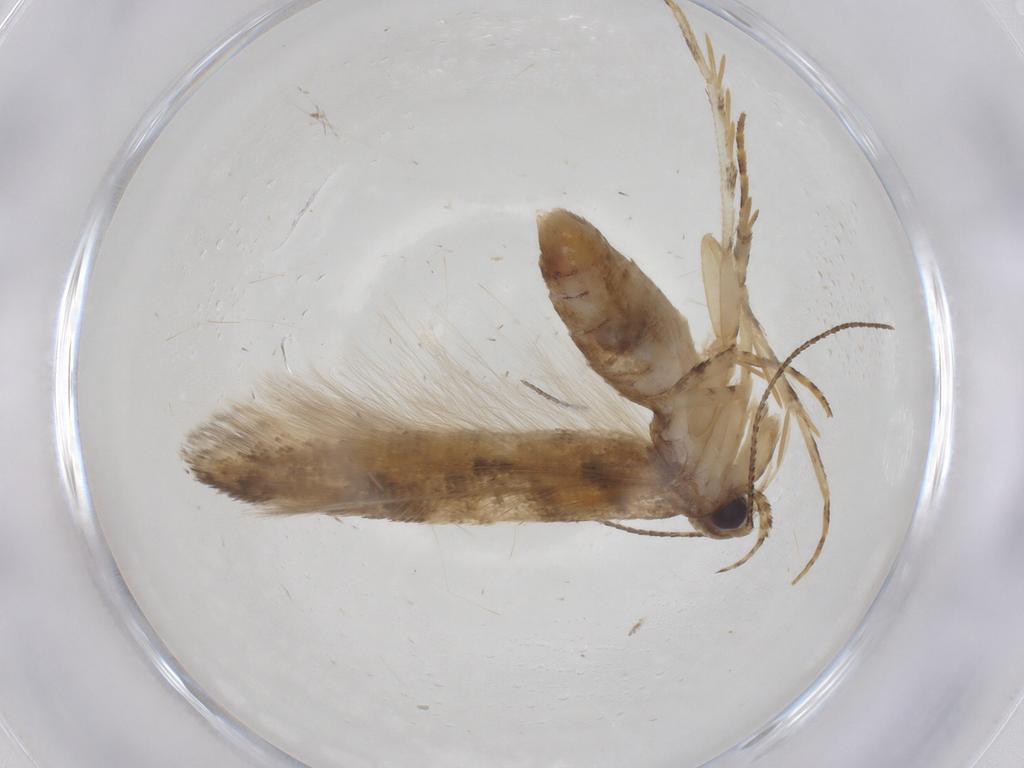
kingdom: Animalia
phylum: Arthropoda
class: Insecta
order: Lepidoptera
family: Gelechiidae
